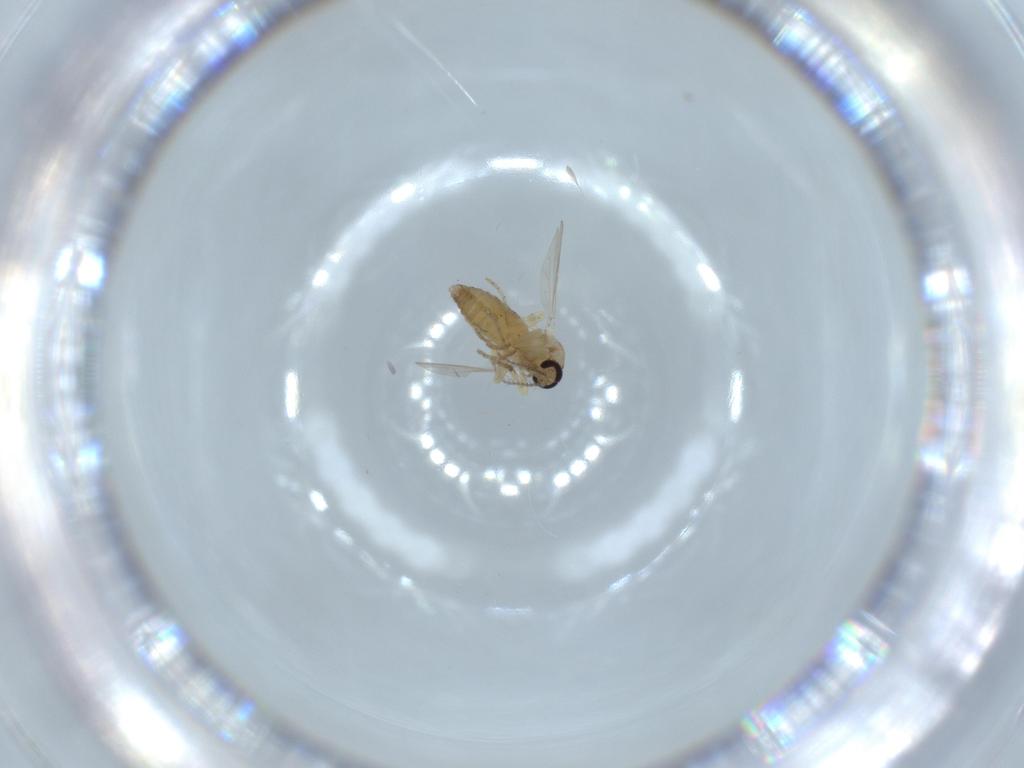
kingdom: Animalia
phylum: Arthropoda
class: Insecta
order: Diptera
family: Ceratopogonidae
